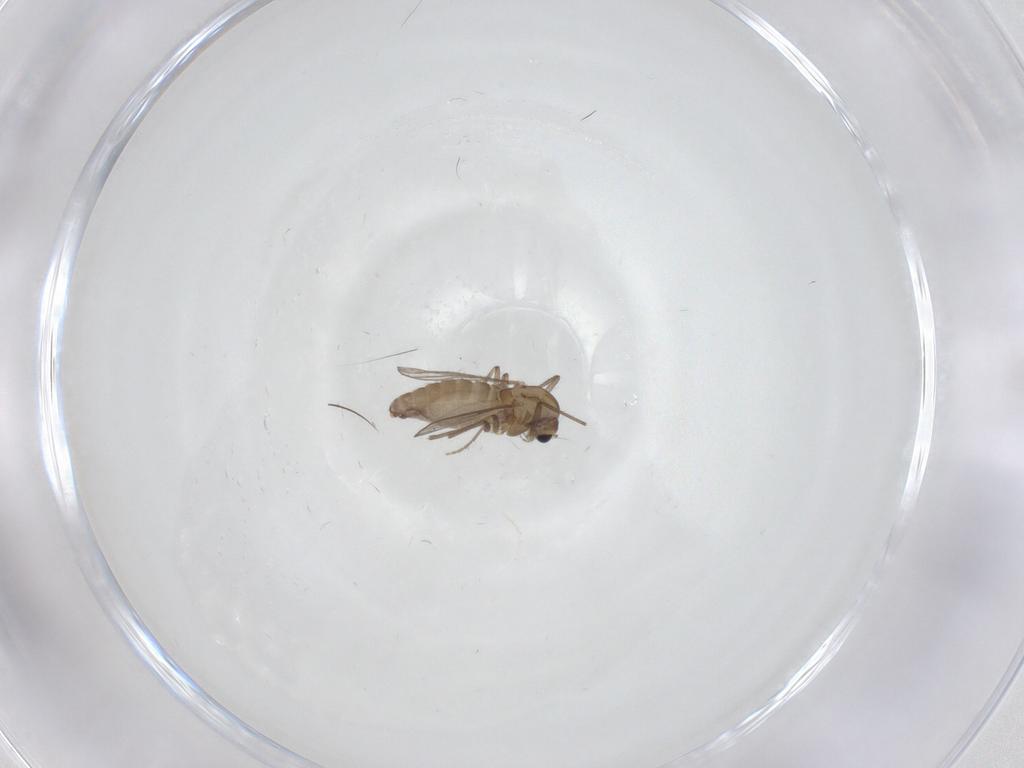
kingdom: Animalia
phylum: Arthropoda
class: Insecta
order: Diptera
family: Chironomidae
